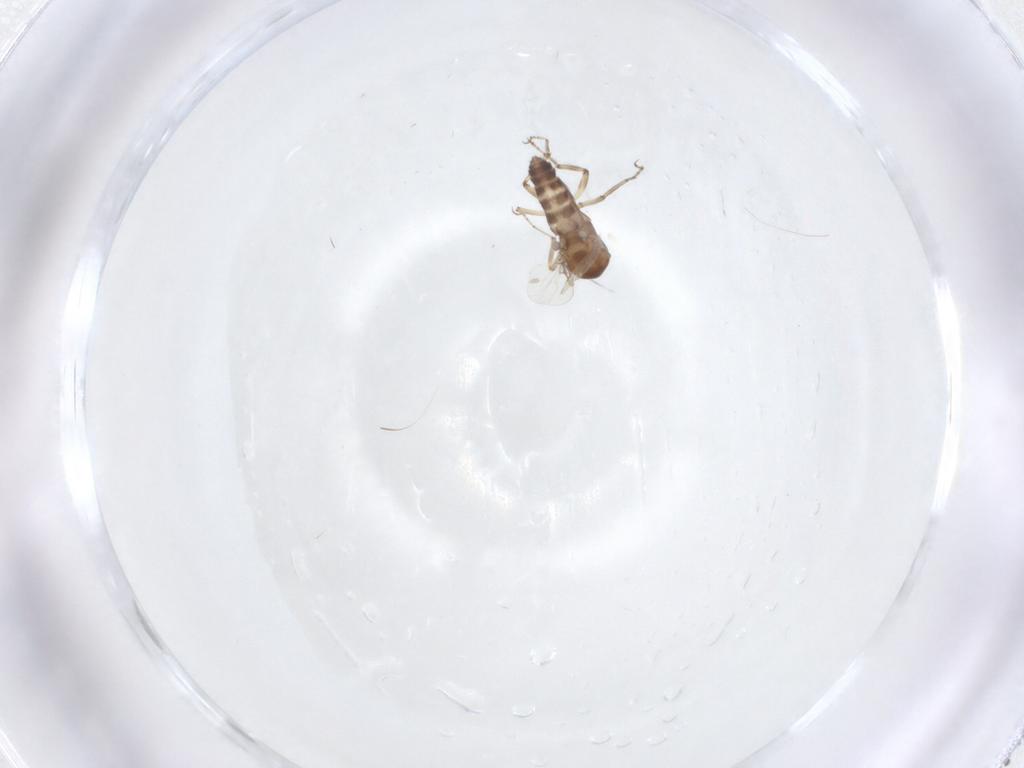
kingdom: Animalia
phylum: Arthropoda
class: Insecta
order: Diptera
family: Ceratopogonidae
